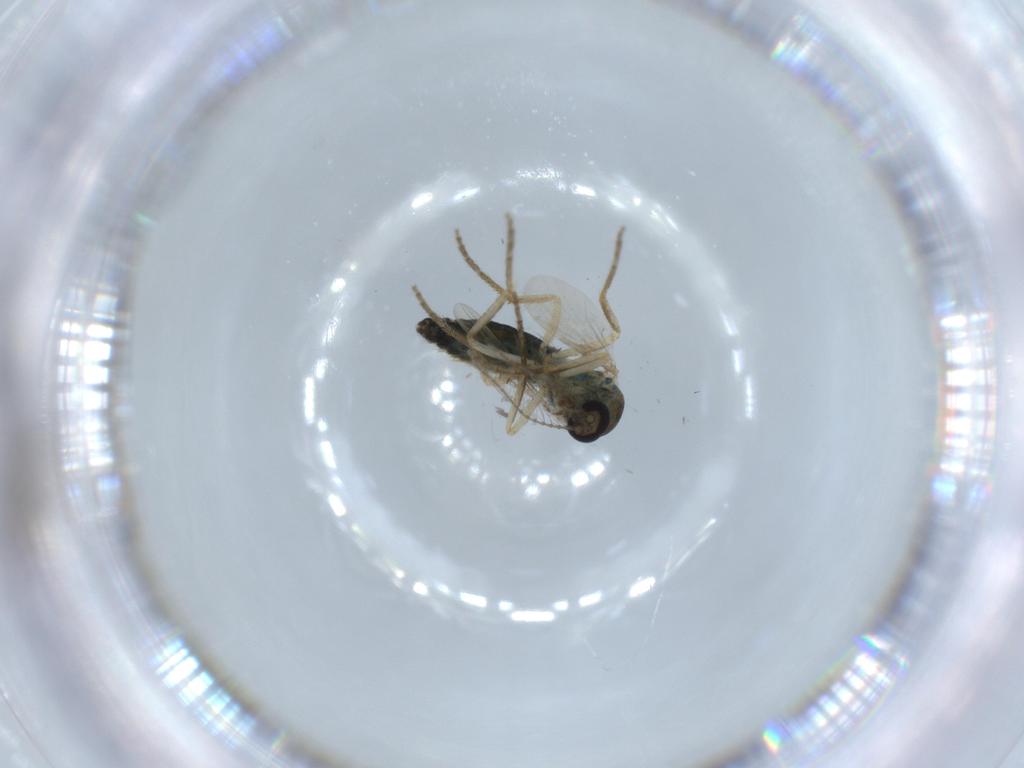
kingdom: Animalia
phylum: Arthropoda
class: Insecta
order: Diptera
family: Ceratopogonidae
